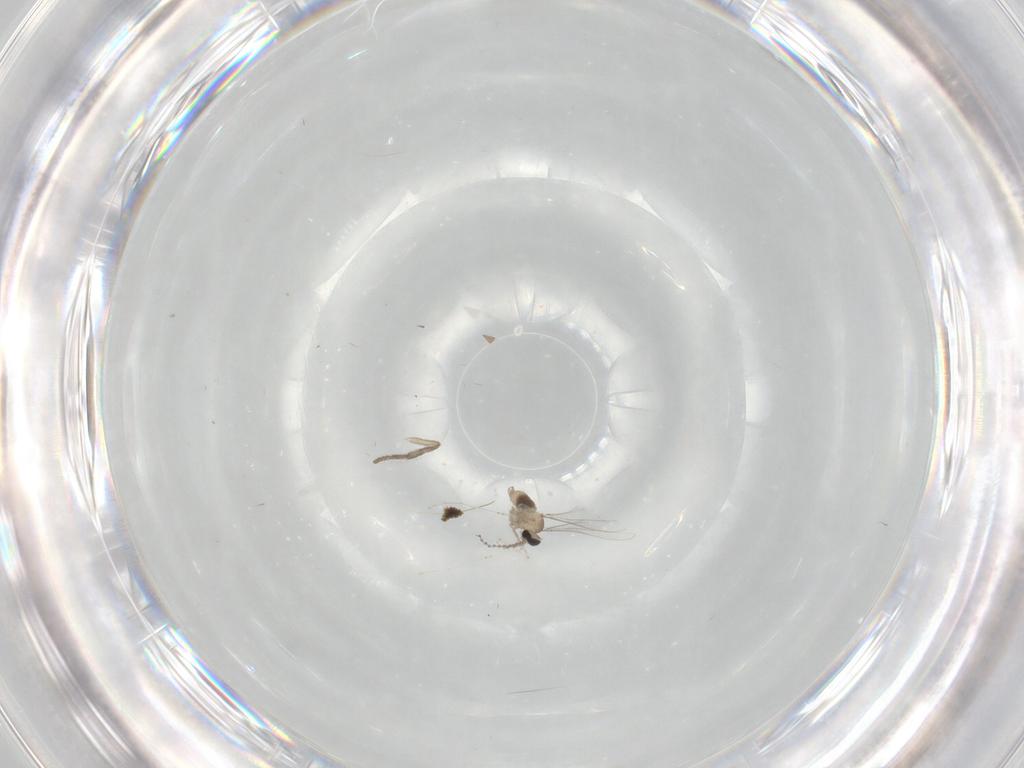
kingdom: Animalia
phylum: Arthropoda
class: Insecta
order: Diptera
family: Cecidomyiidae
